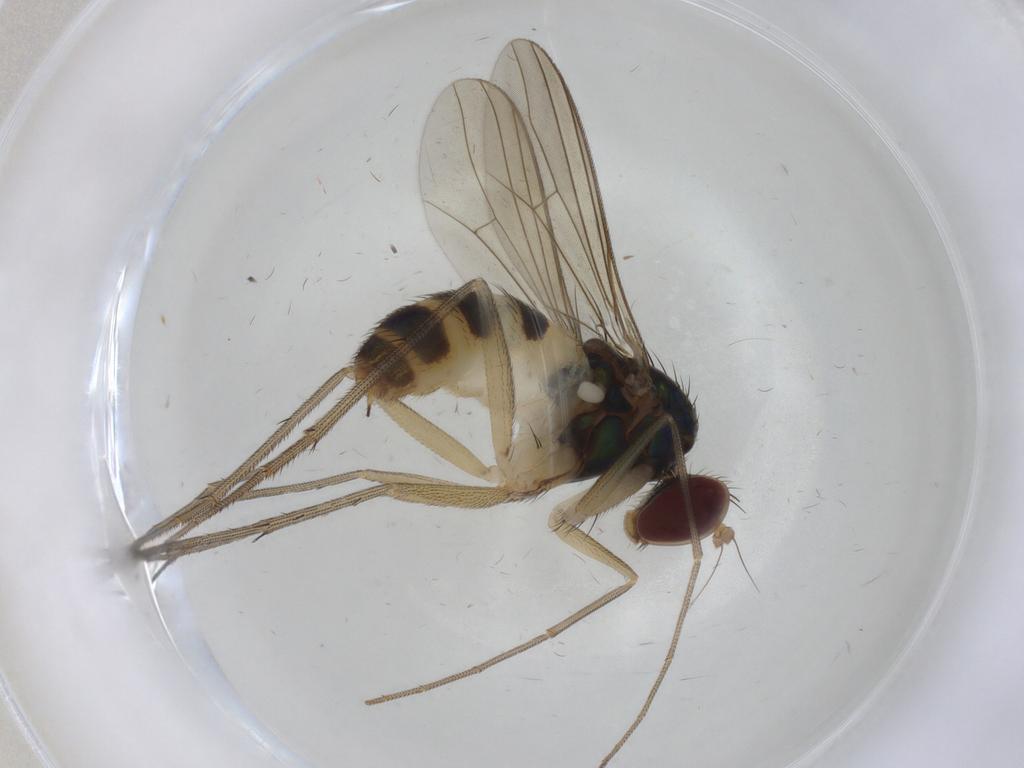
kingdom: Animalia
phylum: Arthropoda
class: Insecta
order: Diptera
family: Dolichopodidae
